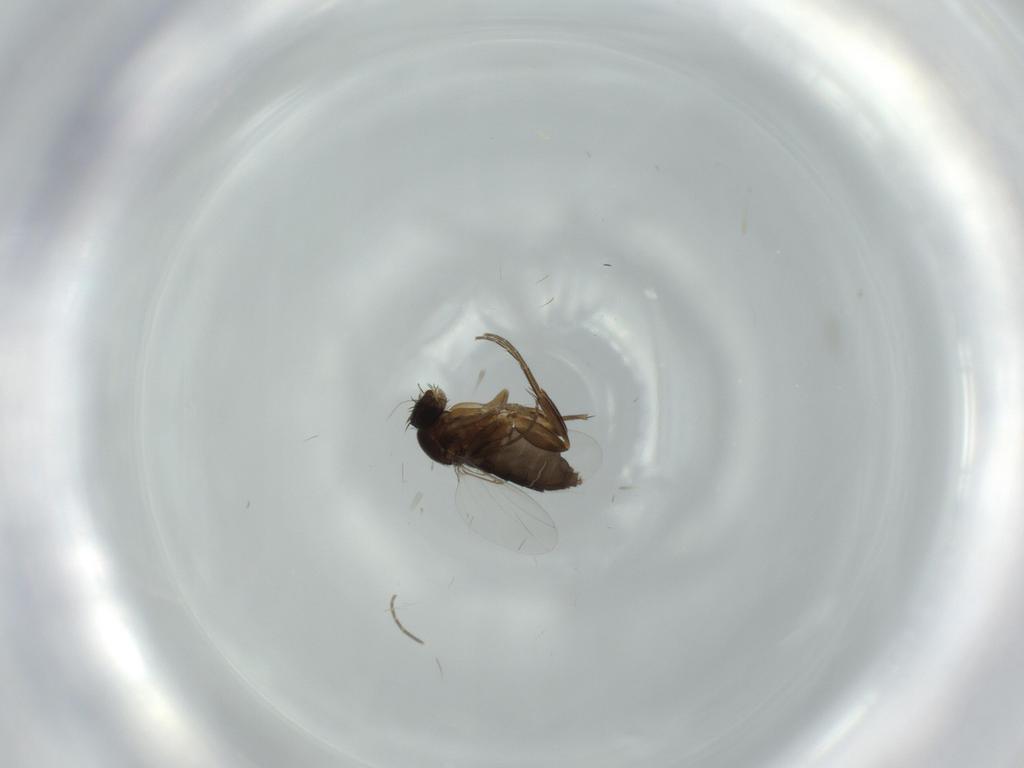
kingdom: Animalia
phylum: Arthropoda
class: Insecta
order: Diptera
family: Phoridae
